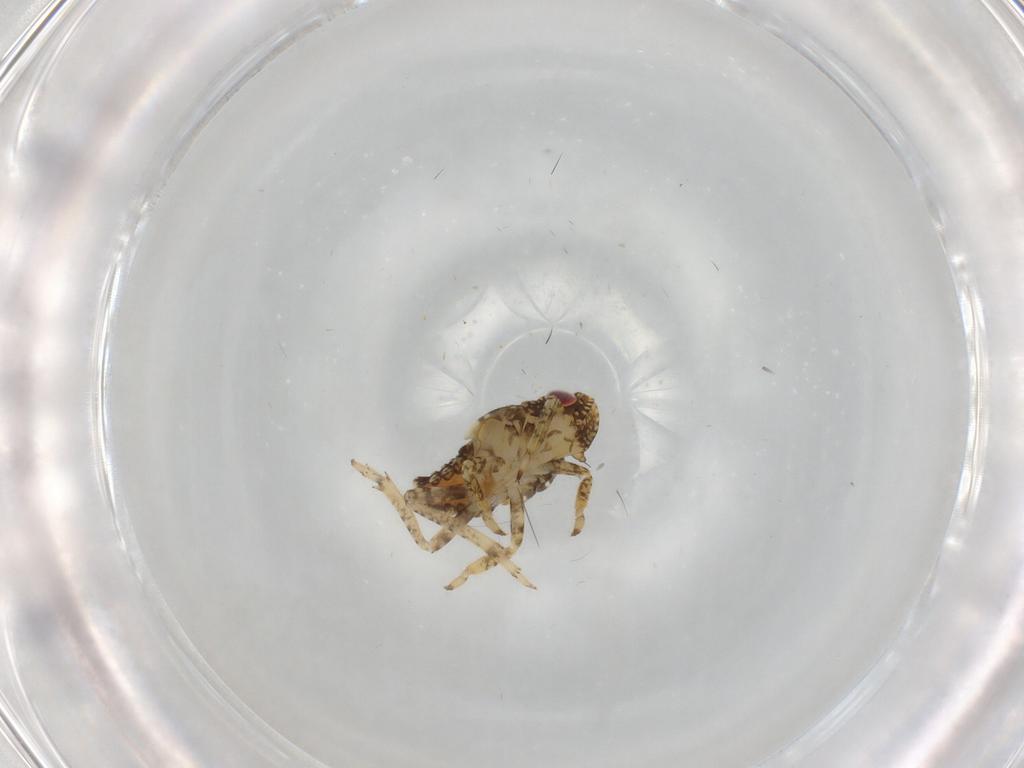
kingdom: Animalia
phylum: Arthropoda
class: Insecta
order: Hemiptera
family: Issidae
